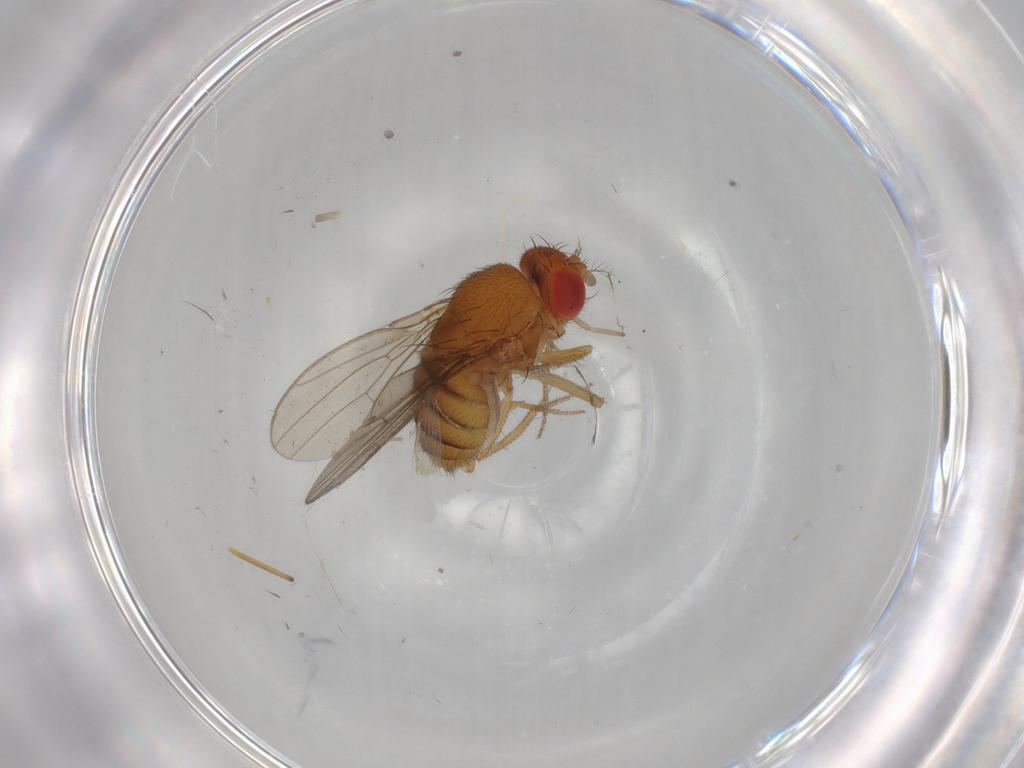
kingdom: Animalia
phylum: Arthropoda
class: Insecta
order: Diptera
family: Drosophilidae
